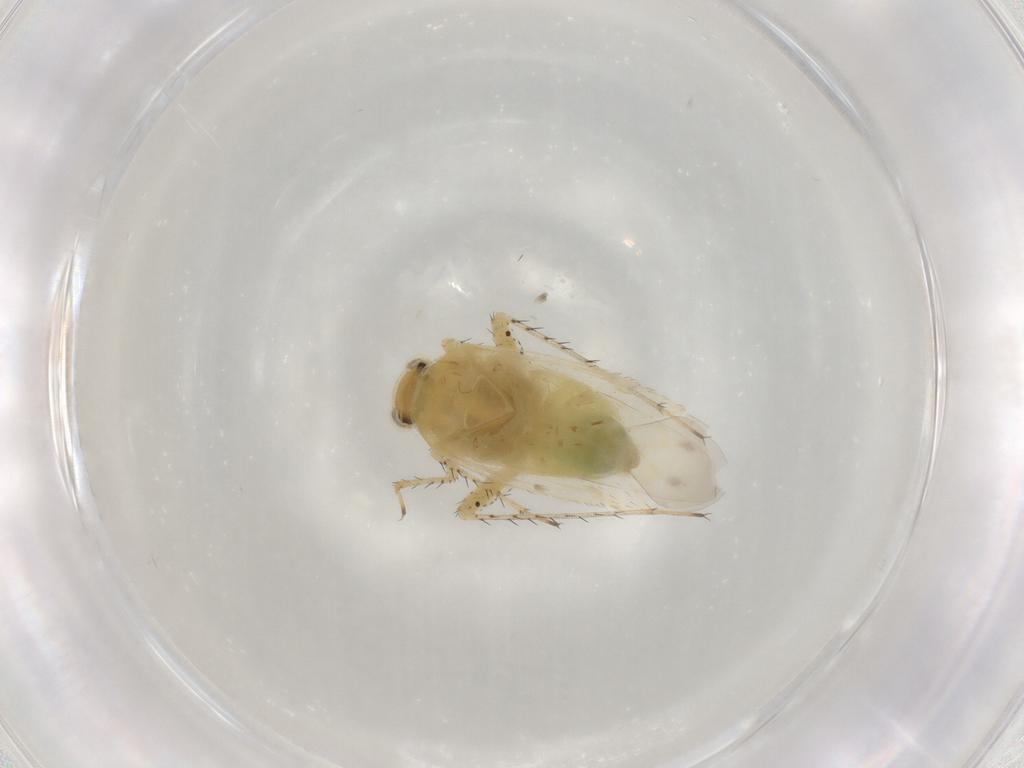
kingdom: Animalia
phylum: Arthropoda
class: Insecta
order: Hemiptera
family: Miridae
